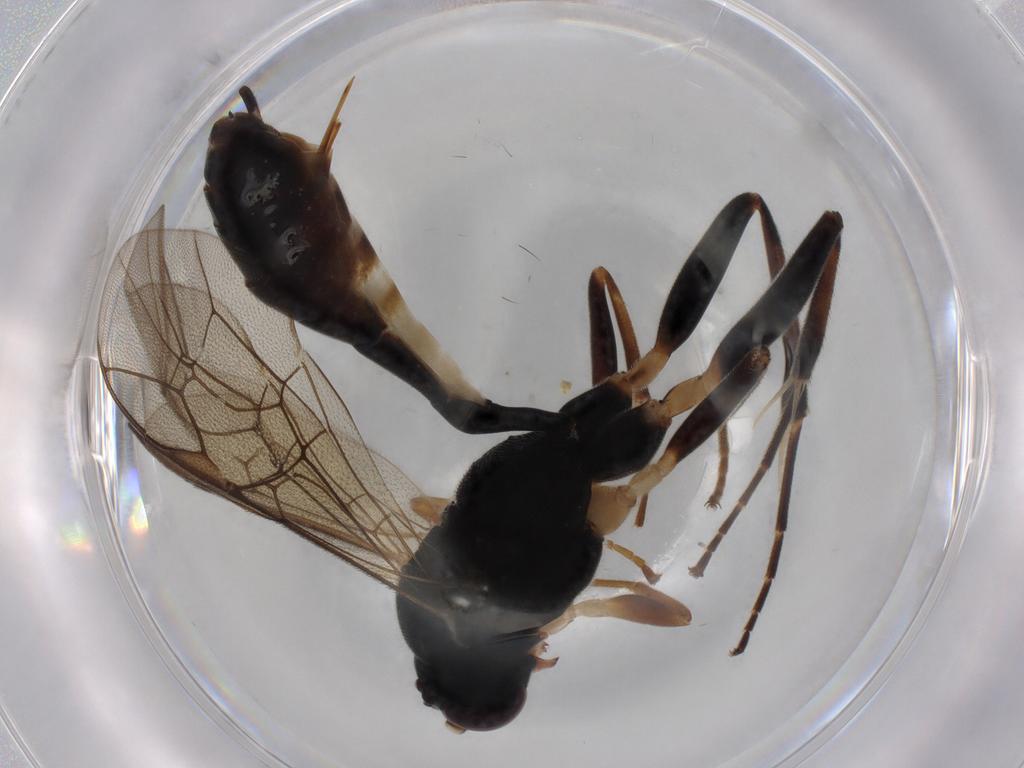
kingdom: Animalia
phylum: Arthropoda
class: Insecta
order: Hymenoptera
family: Ichneumonidae
